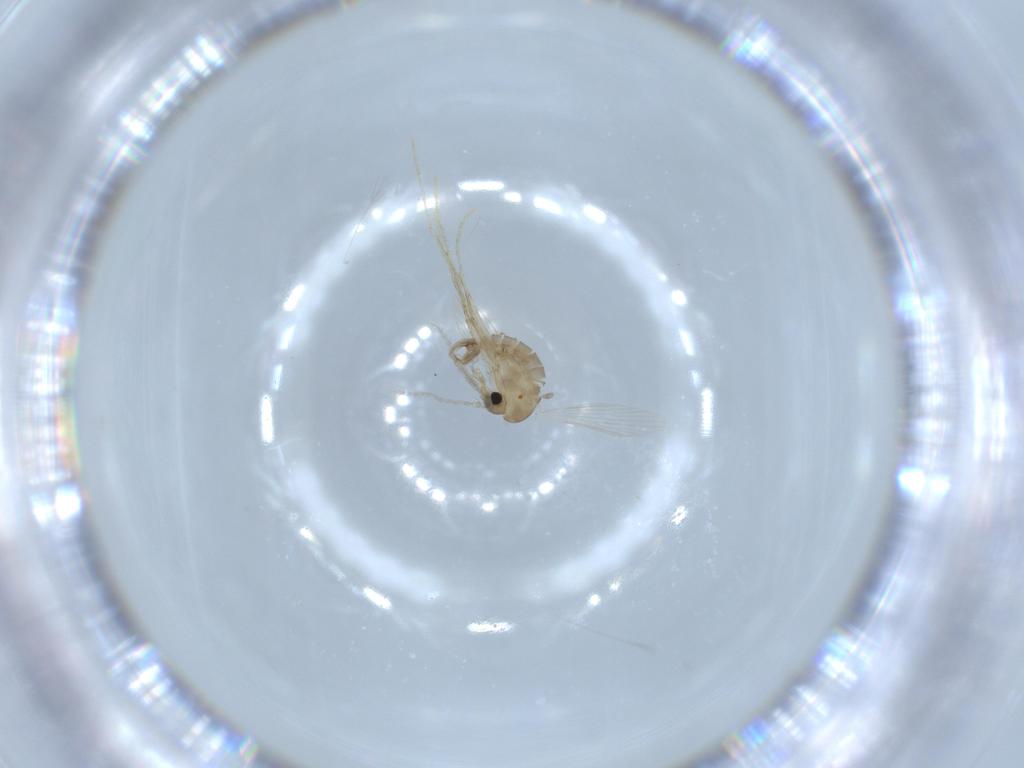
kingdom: Animalia
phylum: Arthropoda
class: Insecta
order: Diptera
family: Psychodidae
